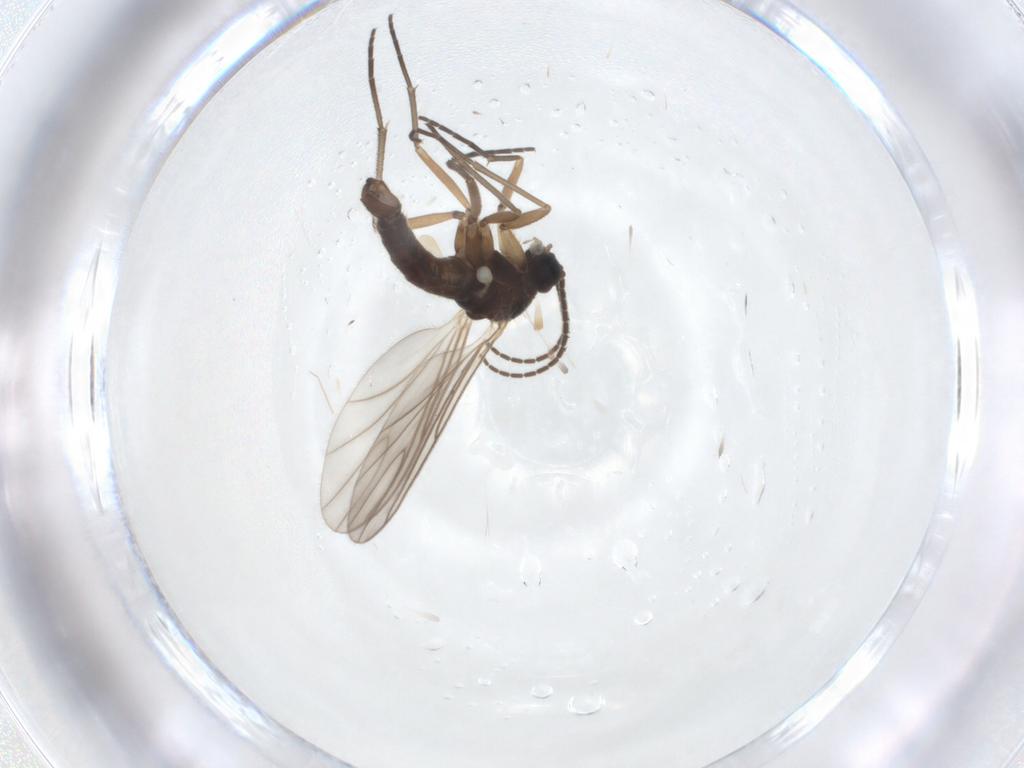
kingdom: Animalia
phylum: Arthropoda
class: Insecta
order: Diptera
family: Sciaridae
